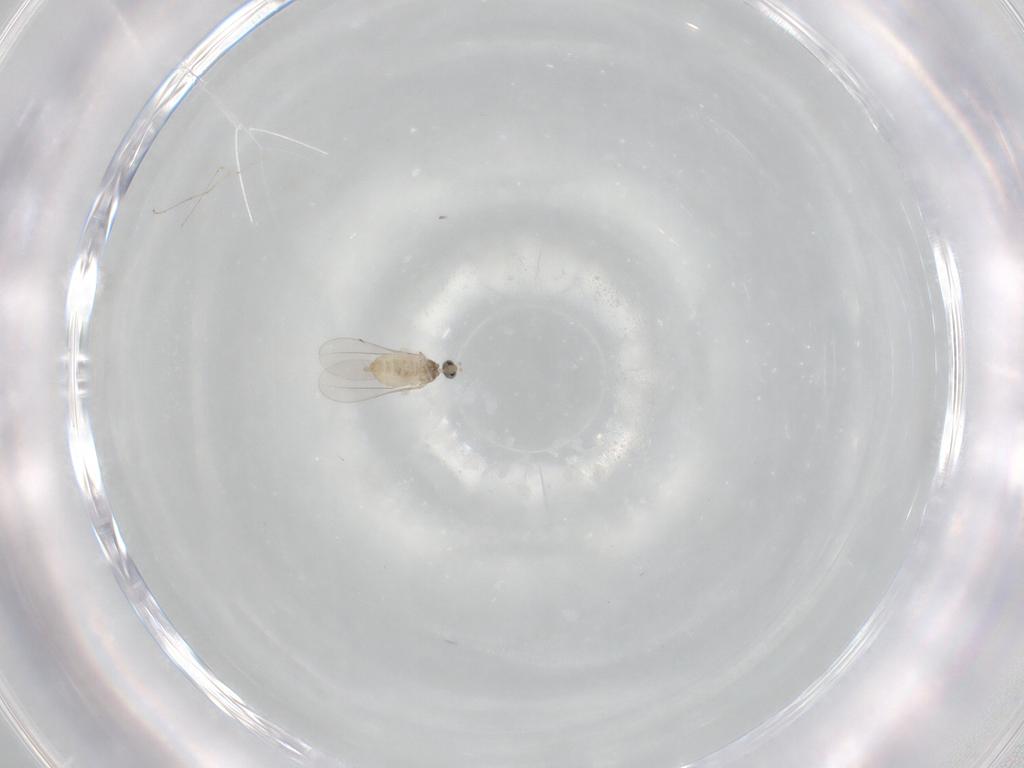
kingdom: Animalia
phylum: Arthropoda
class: Insecta
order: Diptera
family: Cecidomyiidae
